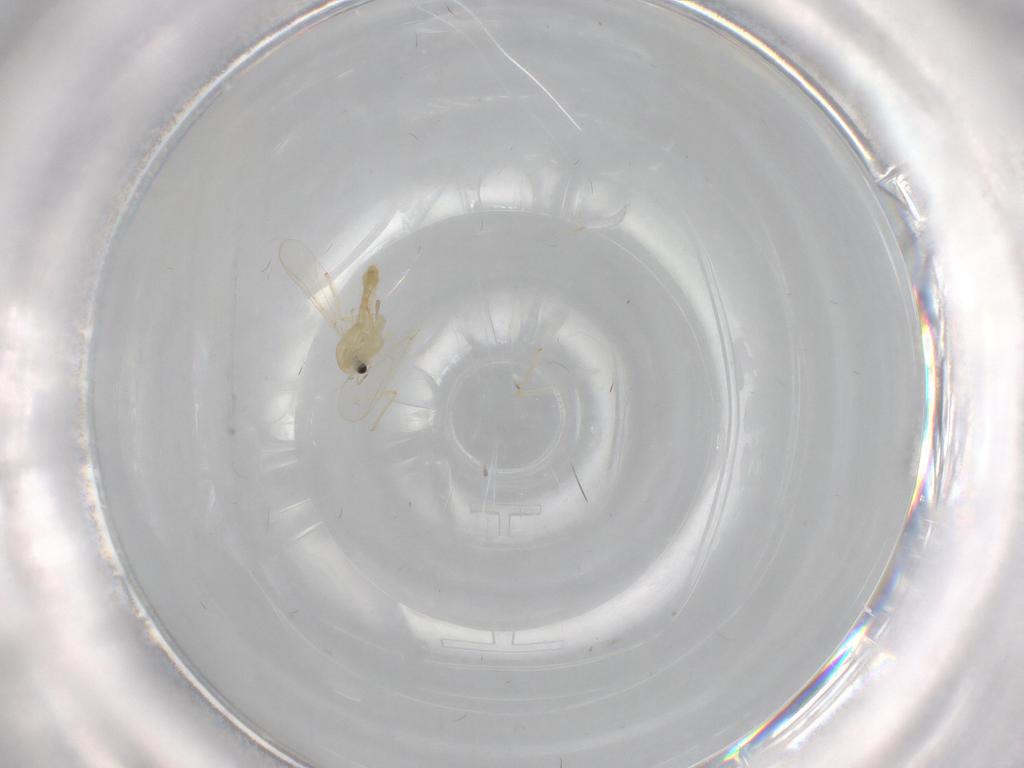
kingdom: Animalia
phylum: Arthropoda
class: Insecta
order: Diptera
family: Chironomidae
